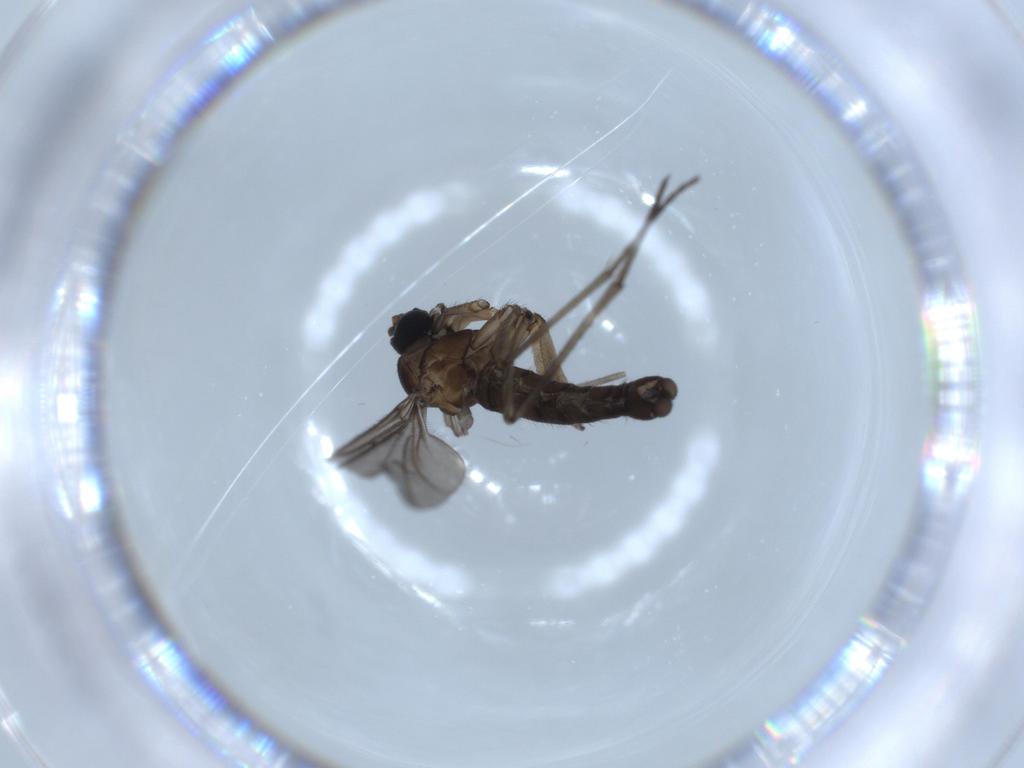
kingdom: Animalia
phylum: Arthropoda
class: Insecta
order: Diptera
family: Sciaridae
